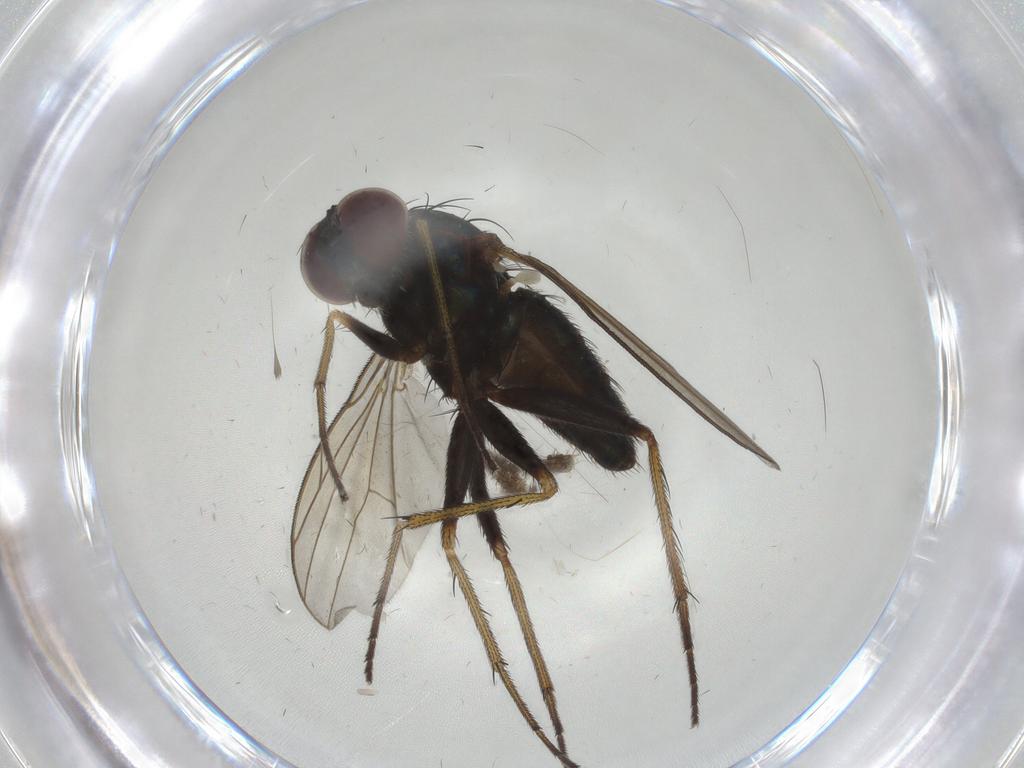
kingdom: Animalia
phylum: Arthropoda
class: Insecta
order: Diptera
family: Dolichopodidae
